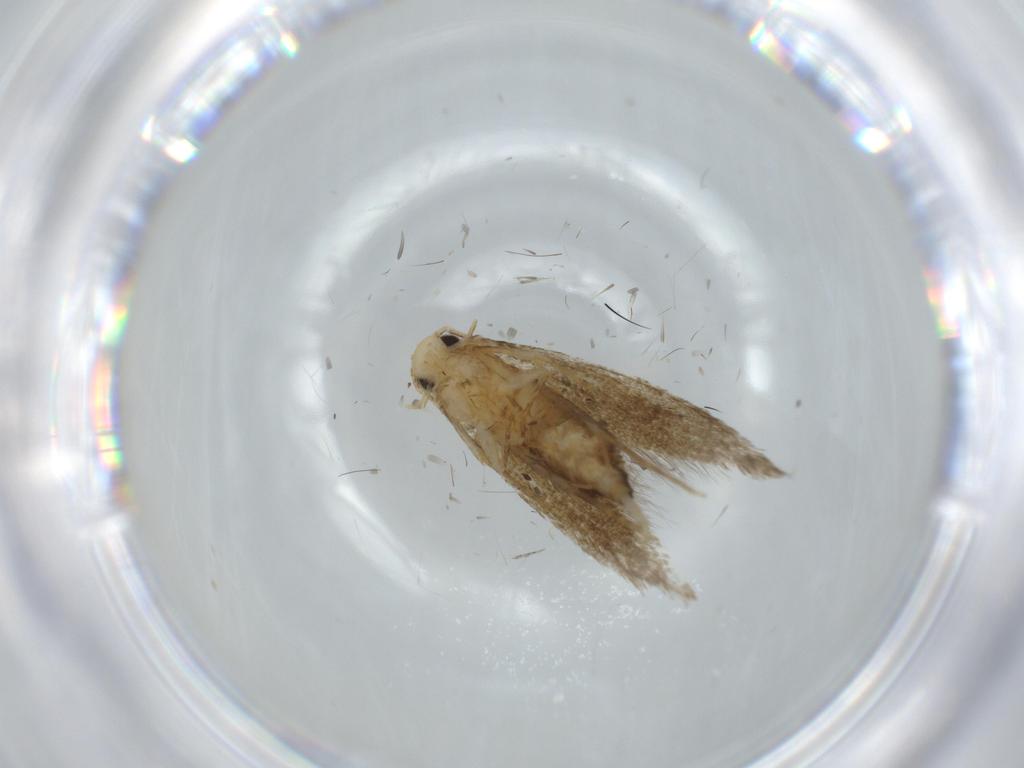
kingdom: Animalia
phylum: Arthropoda
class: Insecta
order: Lepidoptera
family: Tineidae
